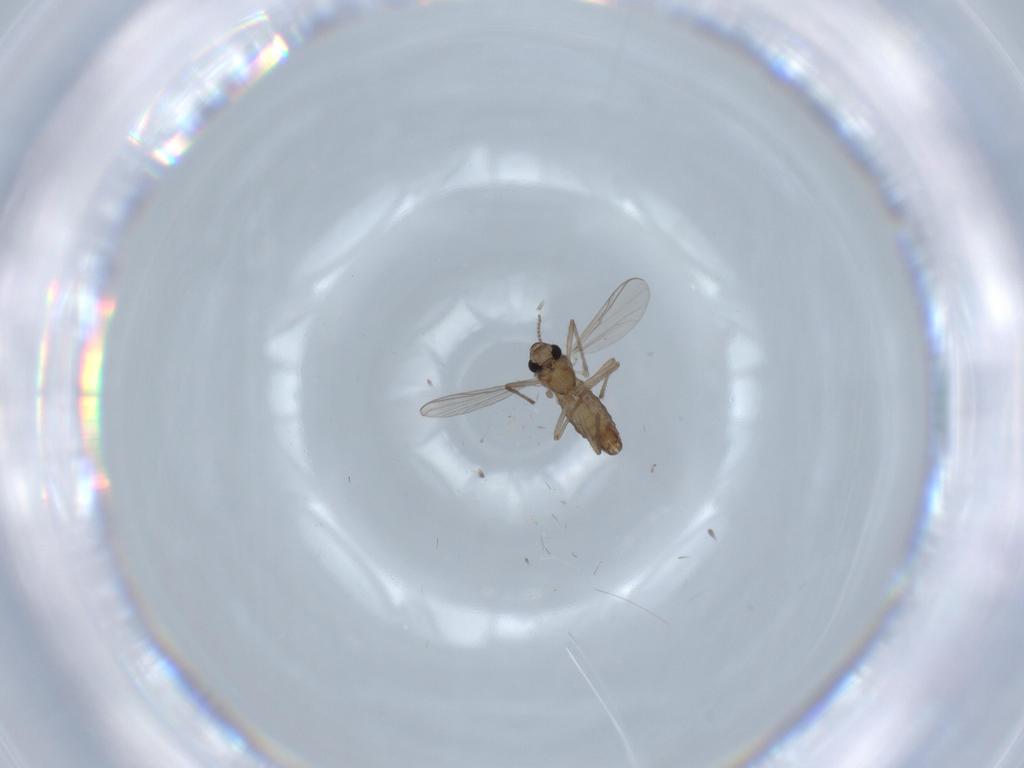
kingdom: Animalia
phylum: Arthropoda
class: Insecta
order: Diptera
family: Chironomidae
